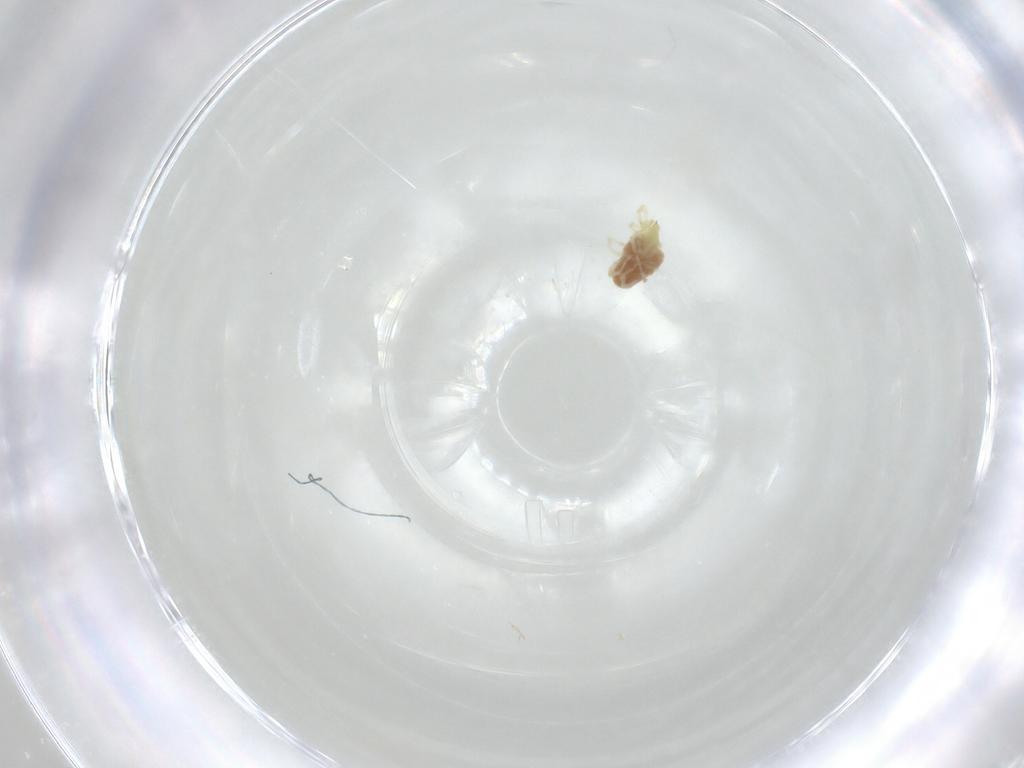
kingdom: Animalia
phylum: Arthropoda
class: Arachnida
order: Trombidiformes
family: Erythraeidae
